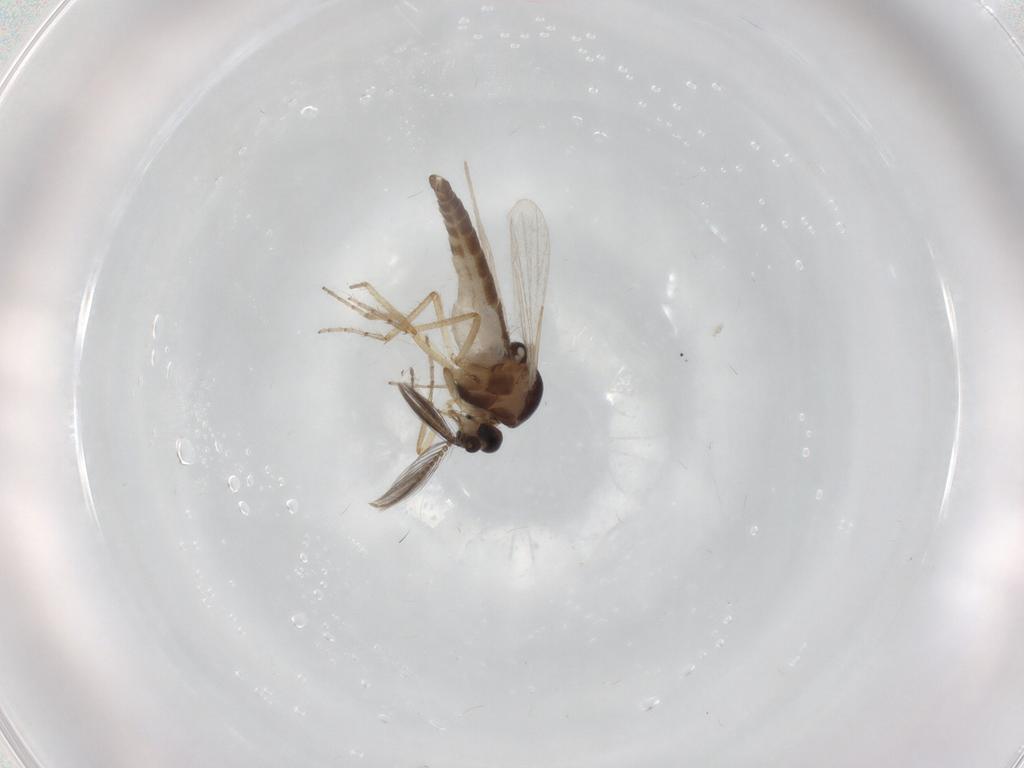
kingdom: Animalia
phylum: Arthropoda
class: Insecta
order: Diptera
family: Ceratopogonidae
